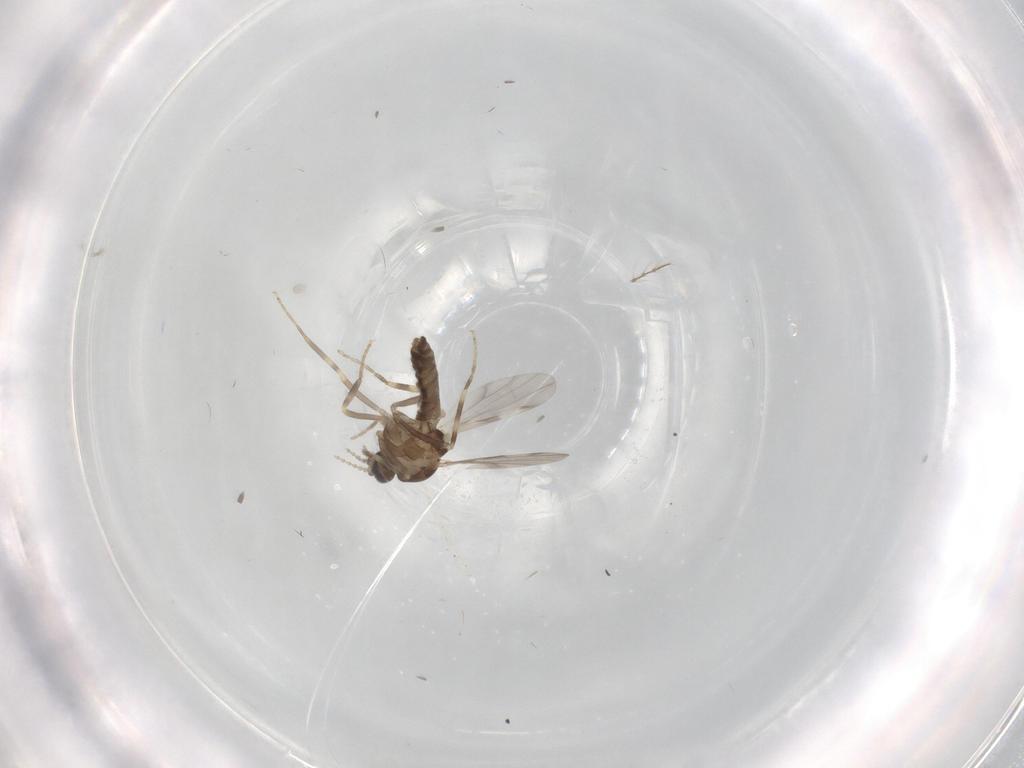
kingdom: Animalia
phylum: Arthropoda
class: Insecta
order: Diptera
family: Ceratopogonidae
